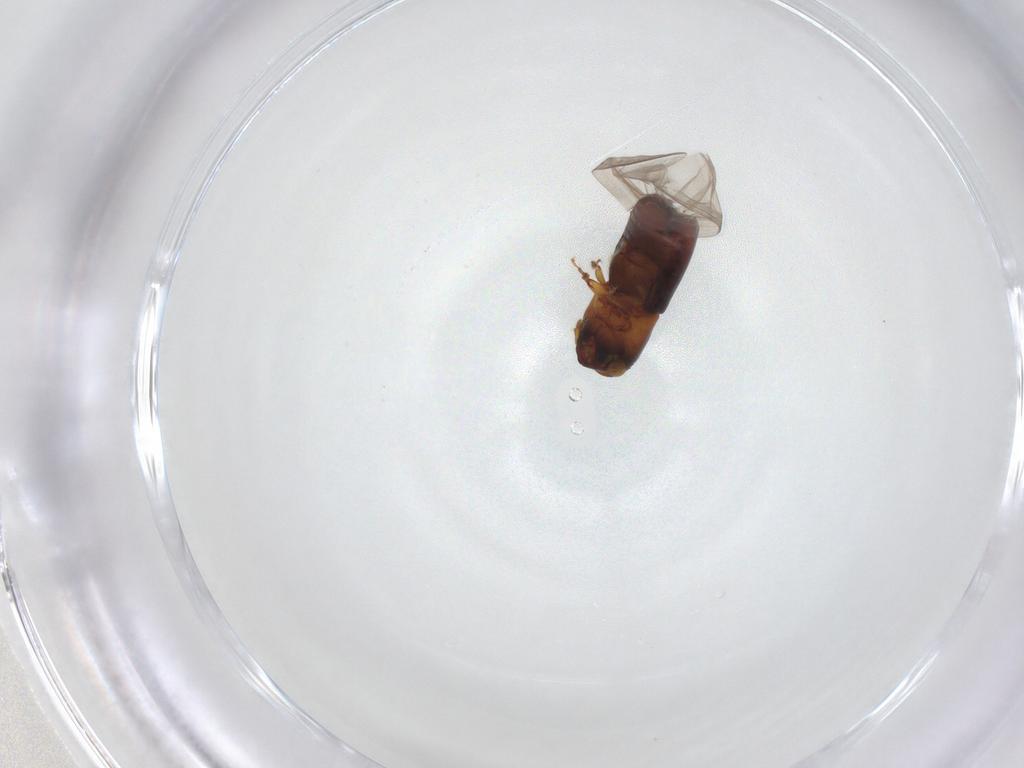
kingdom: Animalia
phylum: Arthropoda
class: Insecta
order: Coleoptera
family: Curculionidae
